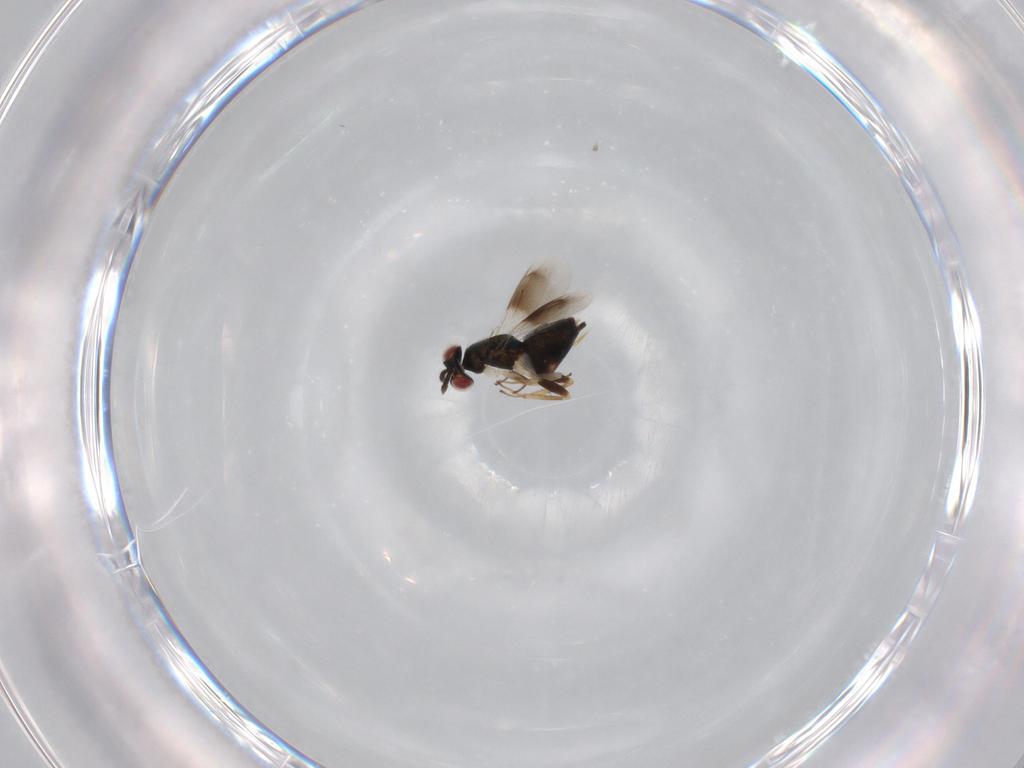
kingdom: Animalia
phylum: Arthropoda
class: Insecta
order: Hymenoptera
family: Eulophidae
